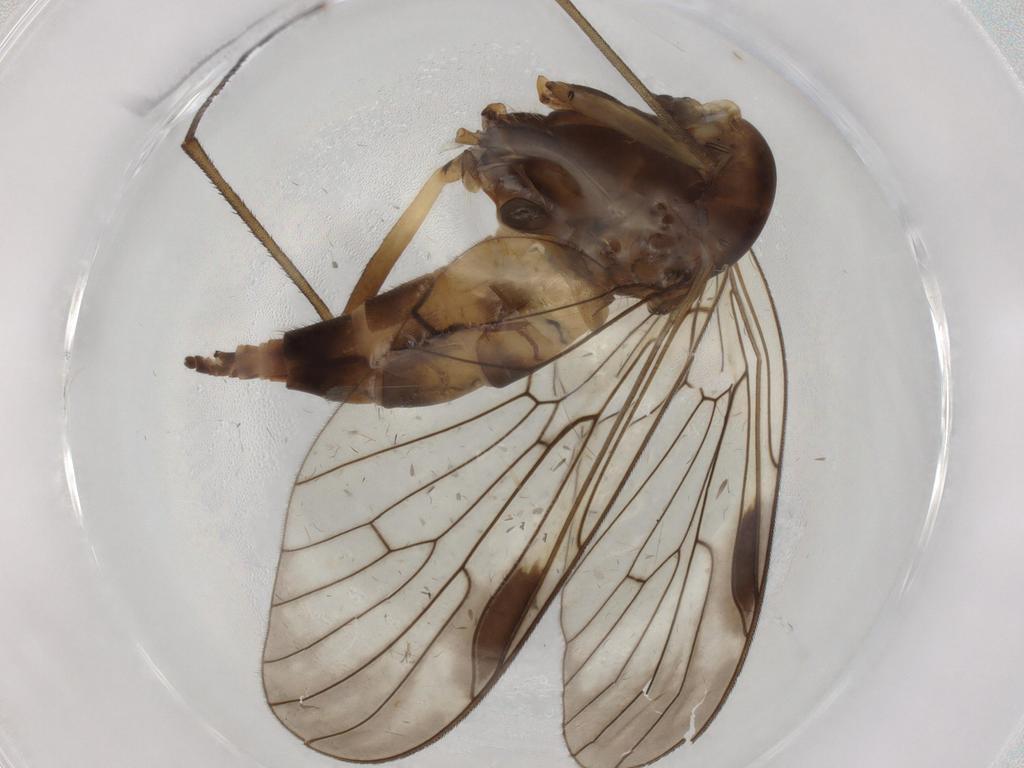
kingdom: Animalia
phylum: Arthropoda
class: Insecta
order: Diptera
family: Rhagionidae
